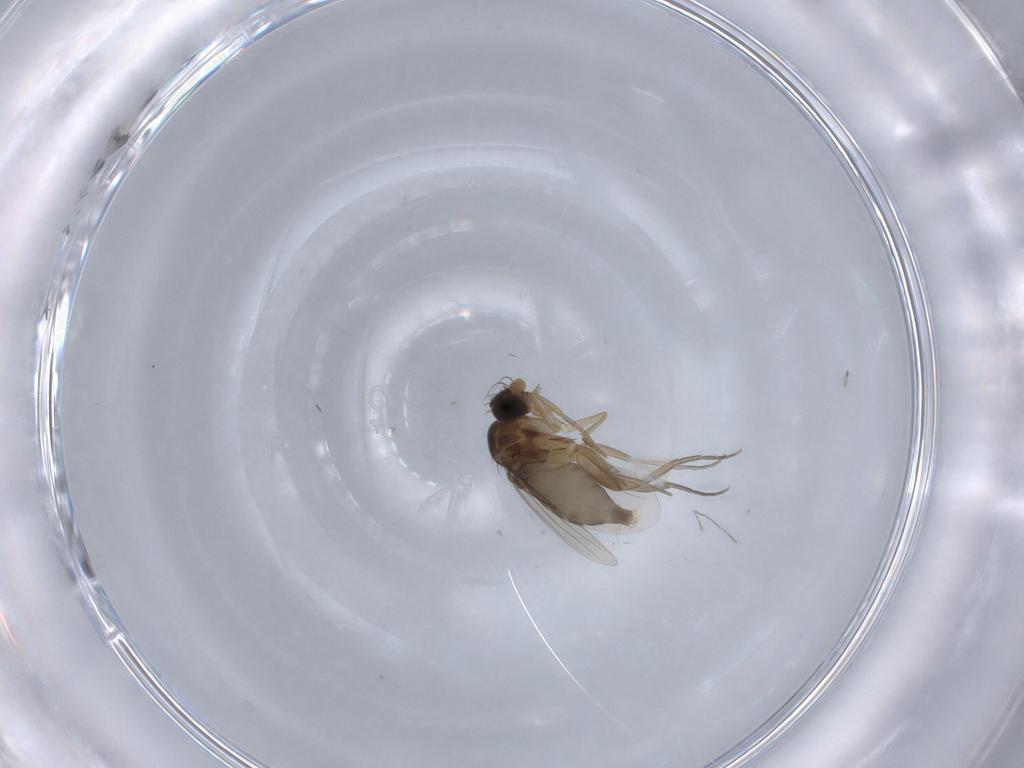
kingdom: Animalia
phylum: Arthropoda
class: Insecta
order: Diptera
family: Phoridae
